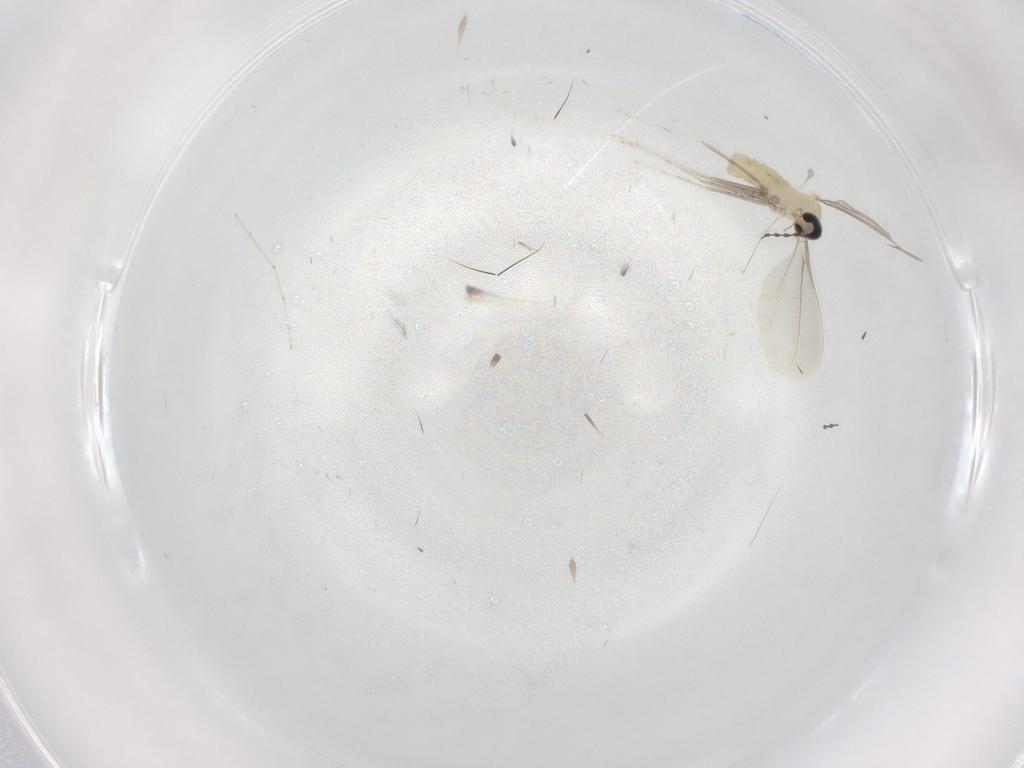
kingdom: Animalia
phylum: Arthropoda
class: Insecta
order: Diptera
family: Cecidomyiidae
